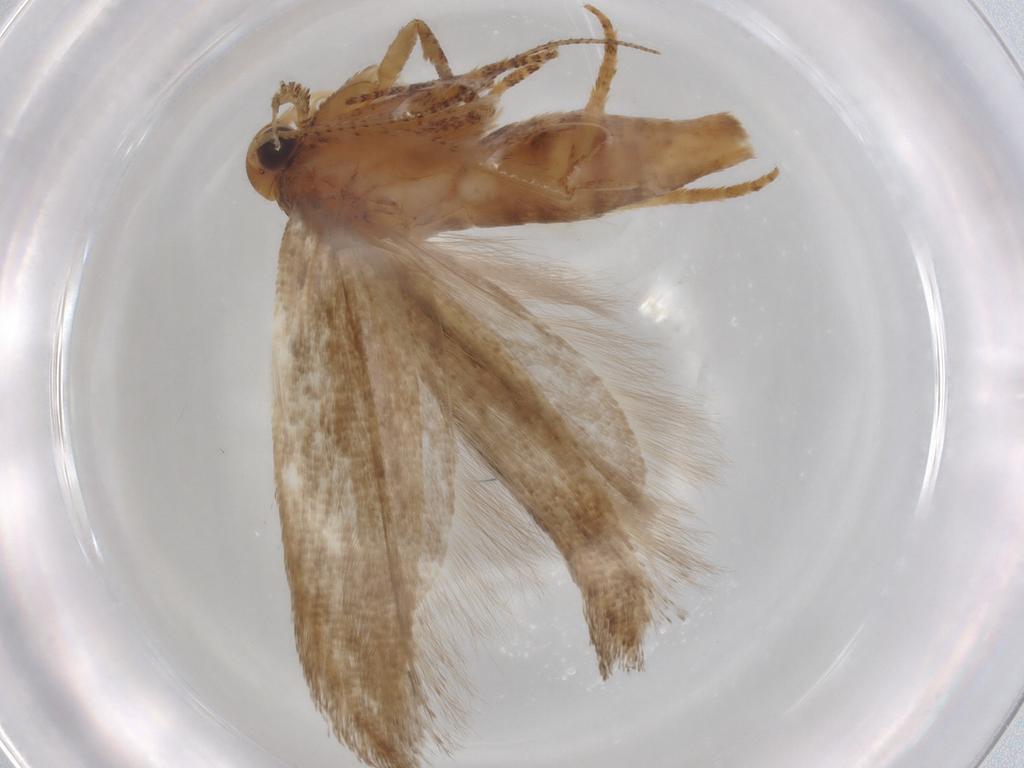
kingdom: Animalia
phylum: Arthropoda
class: Insecta
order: Lepidoptera
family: Gelechiidae
